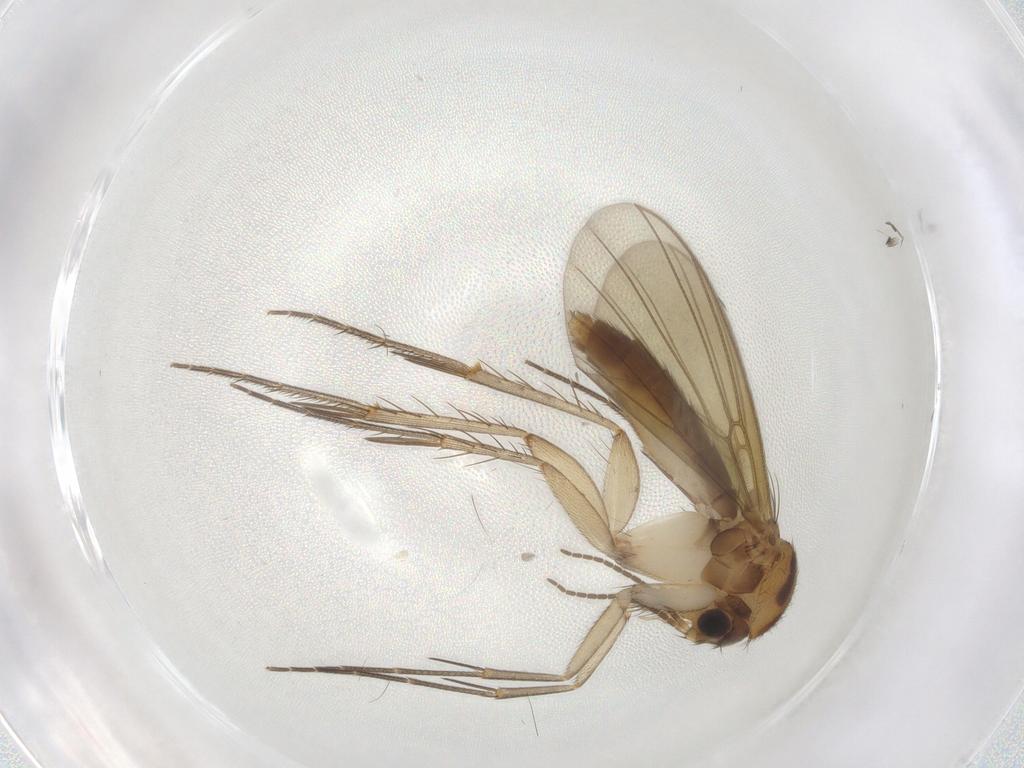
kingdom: Animalia
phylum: Arthropoda
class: Insecta
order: Diptera
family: Mycetophilidae
